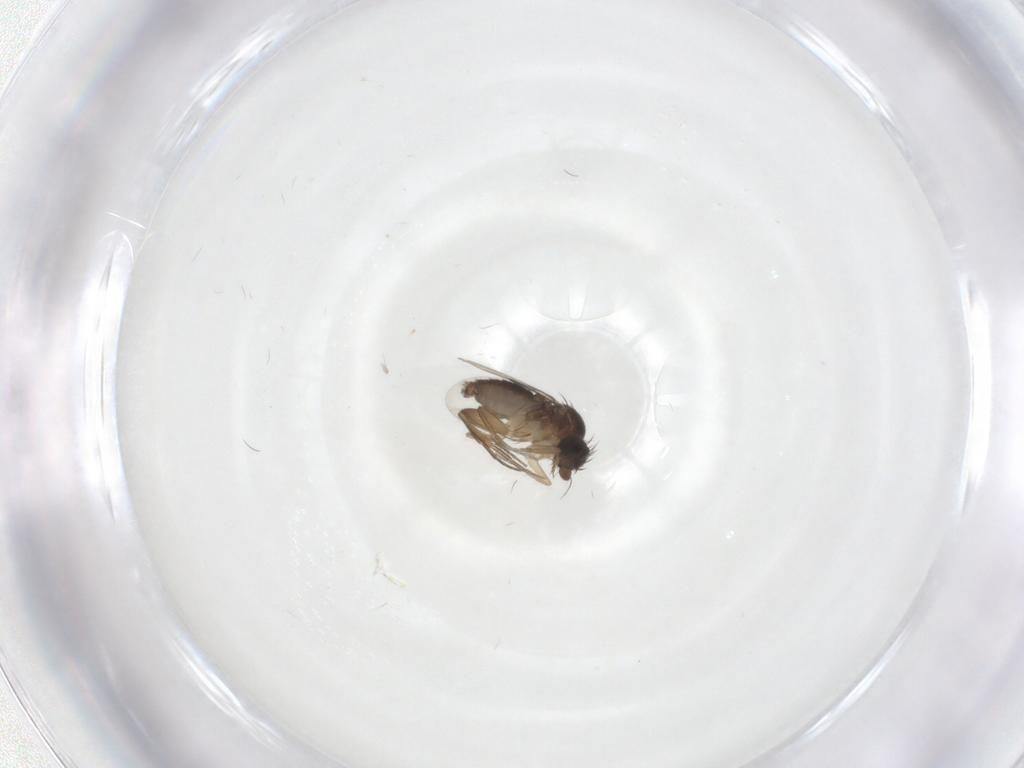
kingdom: Animalia
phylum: Arthropoda
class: Insecta
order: Diptera
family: Phoridae
